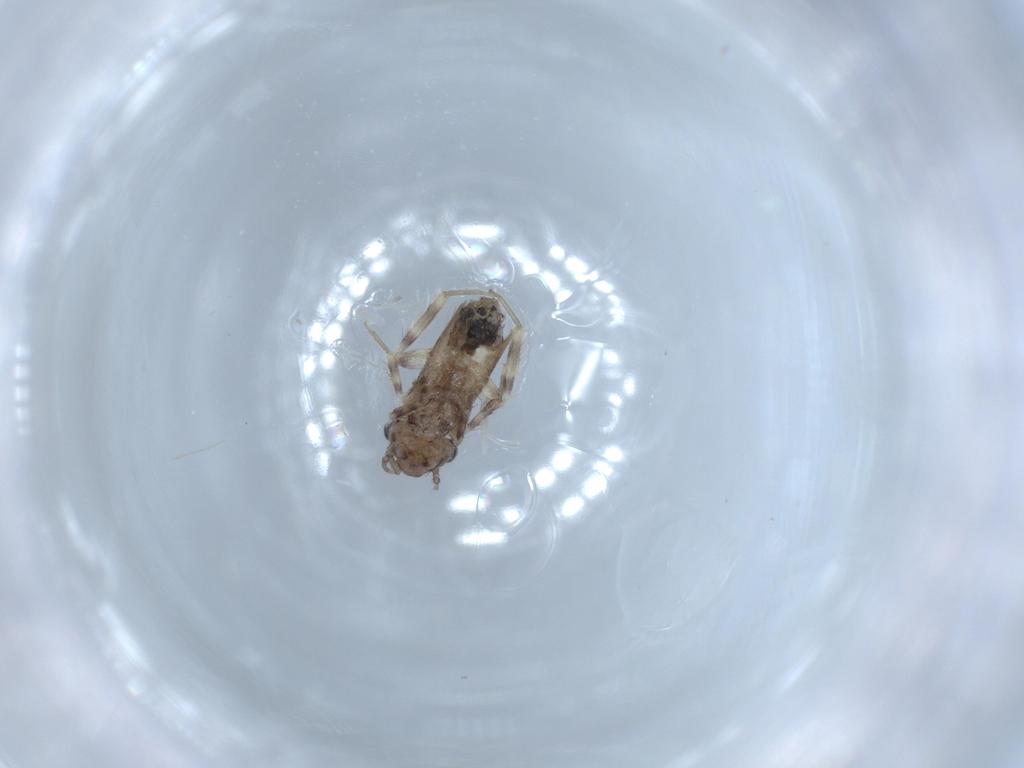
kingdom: Animalia
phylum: Arthropoda
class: Insecta
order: Psocodea
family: Lepidopsocidae
